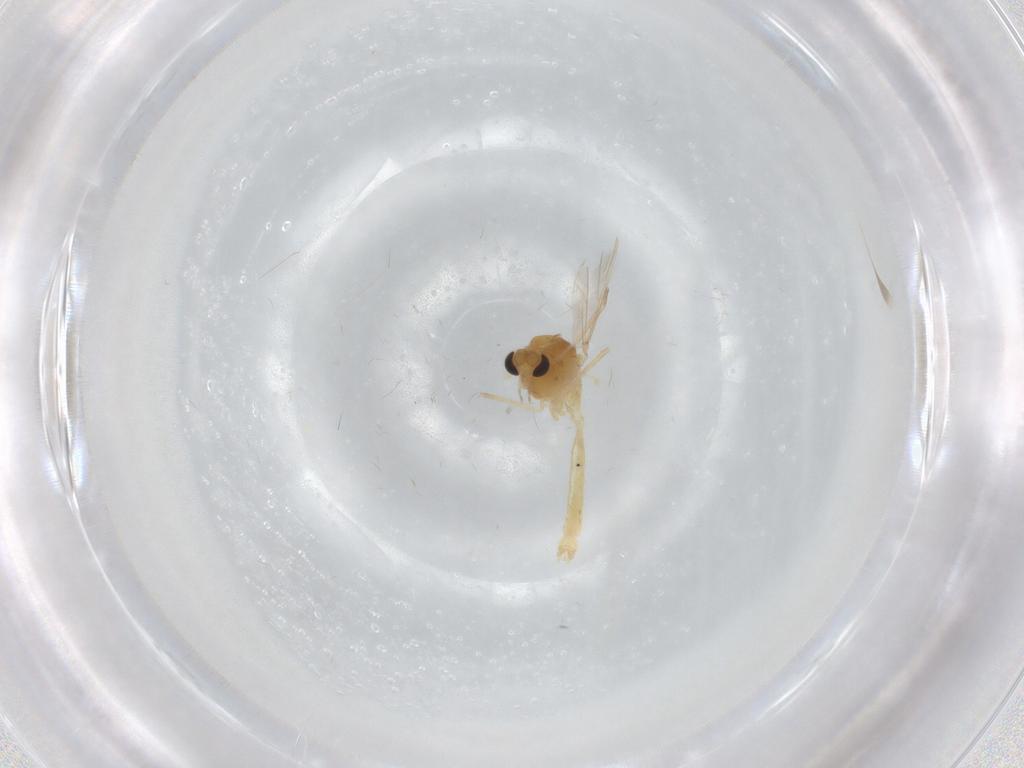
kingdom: Animalia
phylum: Arthropoda
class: Insecta
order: Diptera
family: Chironomidae
